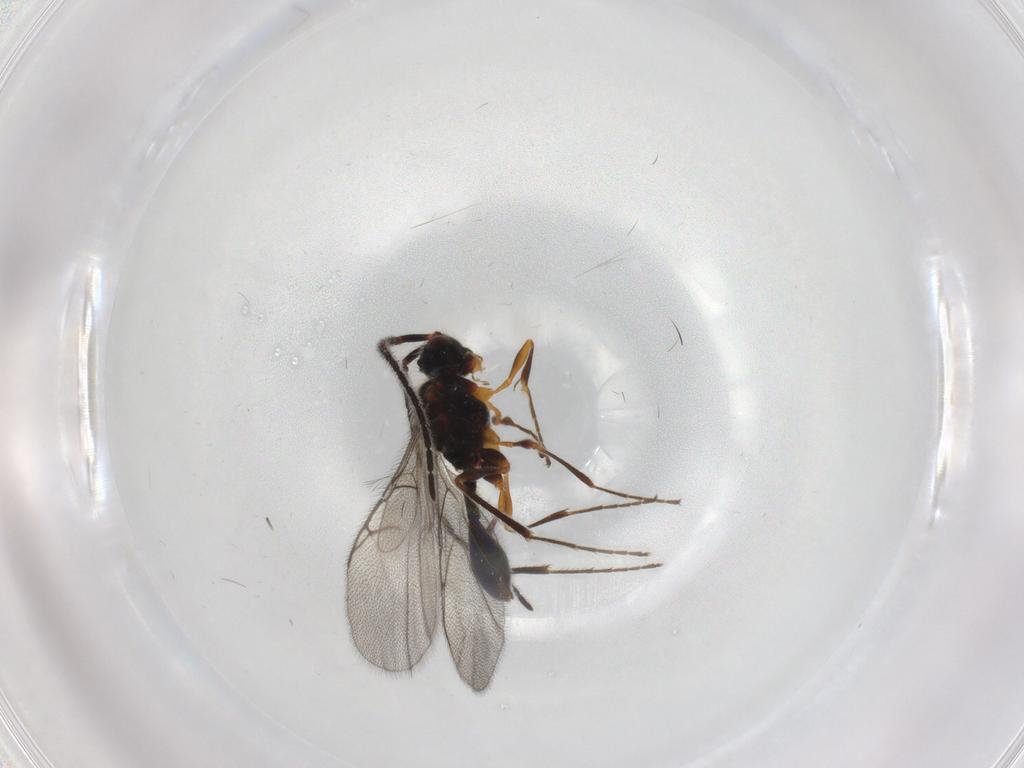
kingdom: Animalia
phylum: Arthropoda
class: Insecta
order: Hymenoptera
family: Diapriidae
